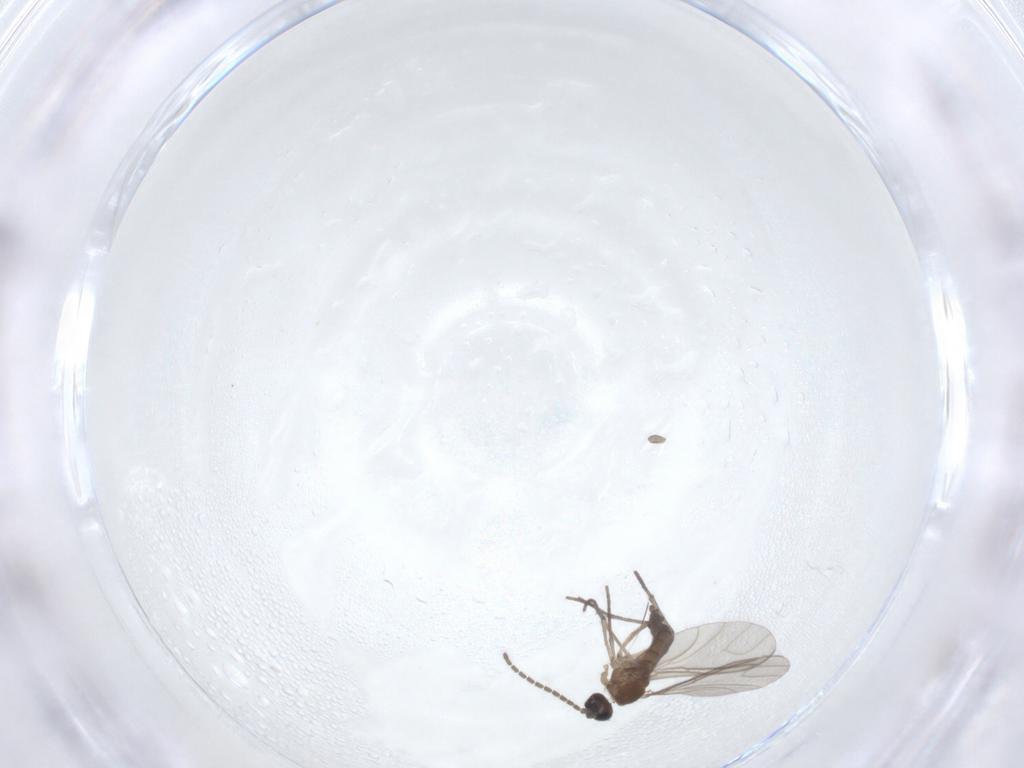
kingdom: Animalia
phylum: Arthropoda
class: Insecta
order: Diptera
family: Sciaridae
